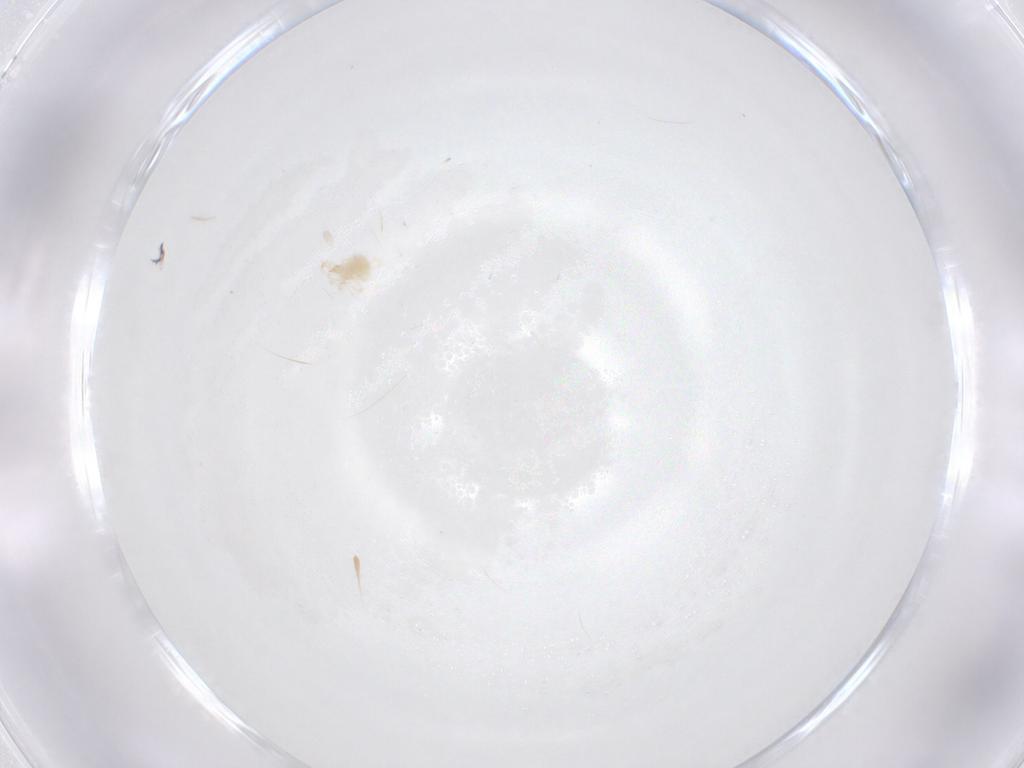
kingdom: Animalia
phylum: Arthropoda
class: Arachnida
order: Trombidiformes
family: Cunaxidae
